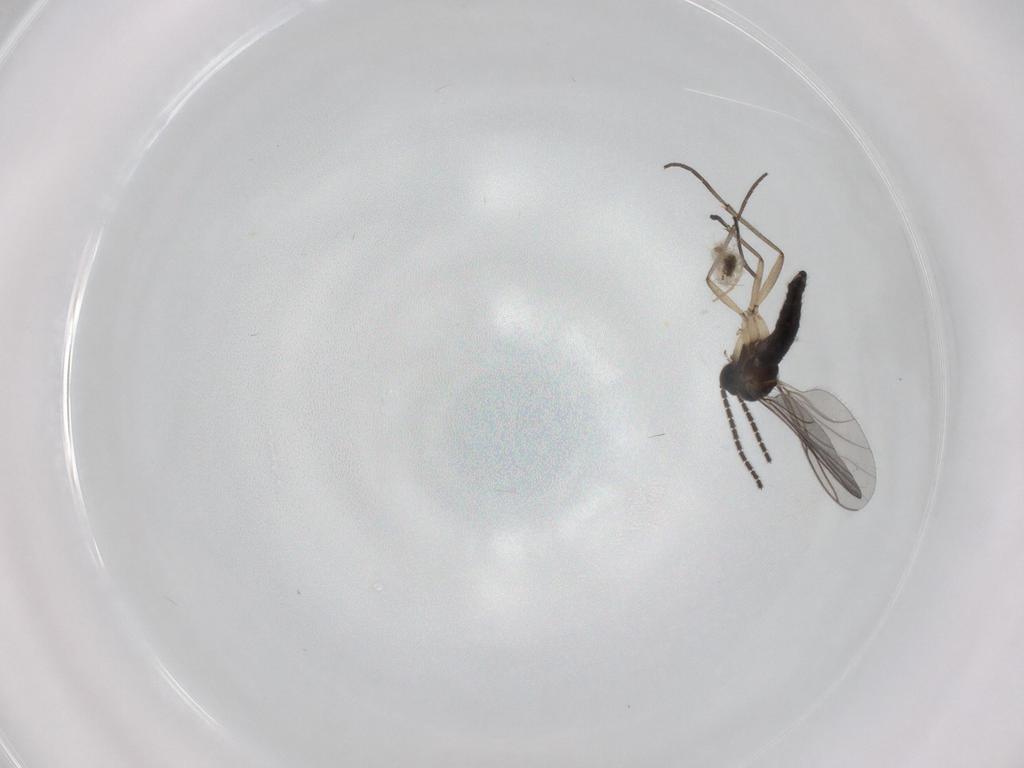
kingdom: Animalia
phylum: Arthropoda
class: Insecta
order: Diptera
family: Sciaridae
